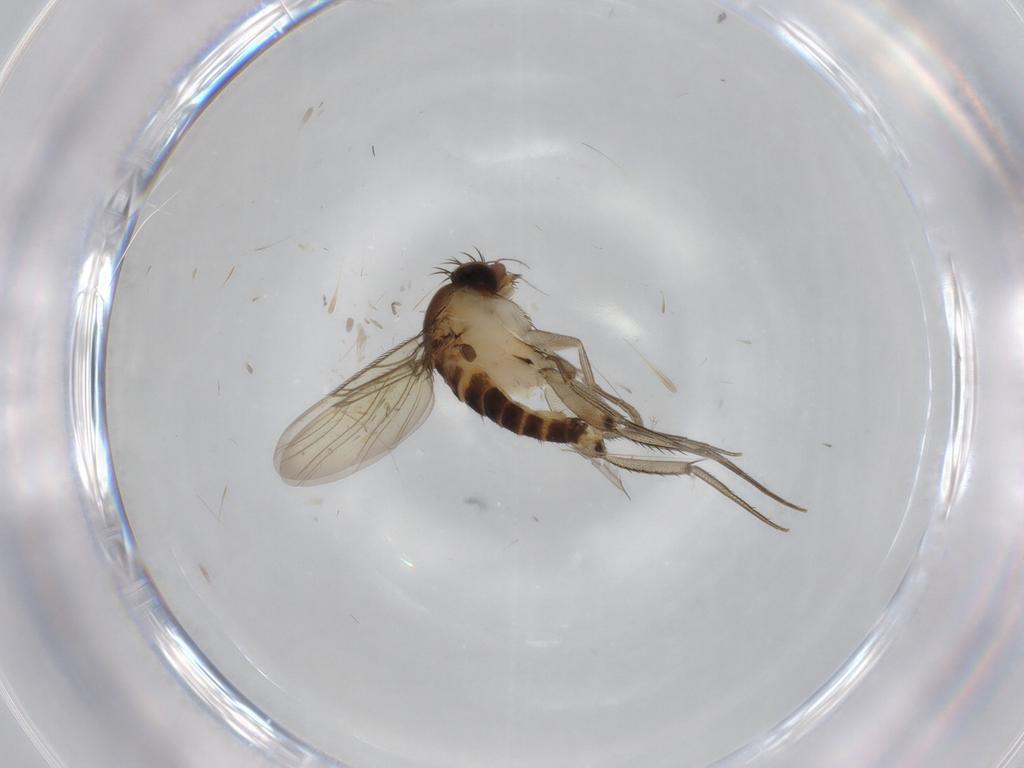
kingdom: Animalia
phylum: Arthropoda
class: Insecta
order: Diptera
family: Phoridae
